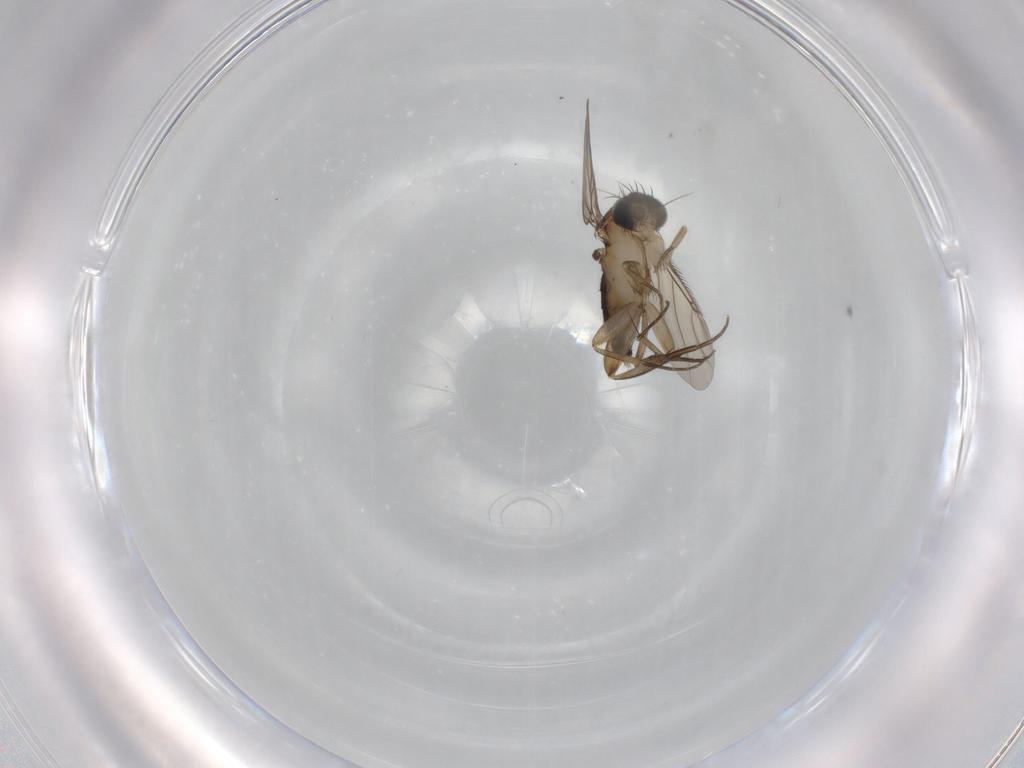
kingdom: Animalia
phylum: Arthropoda
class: Insecta
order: Diptera
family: Phoridae
